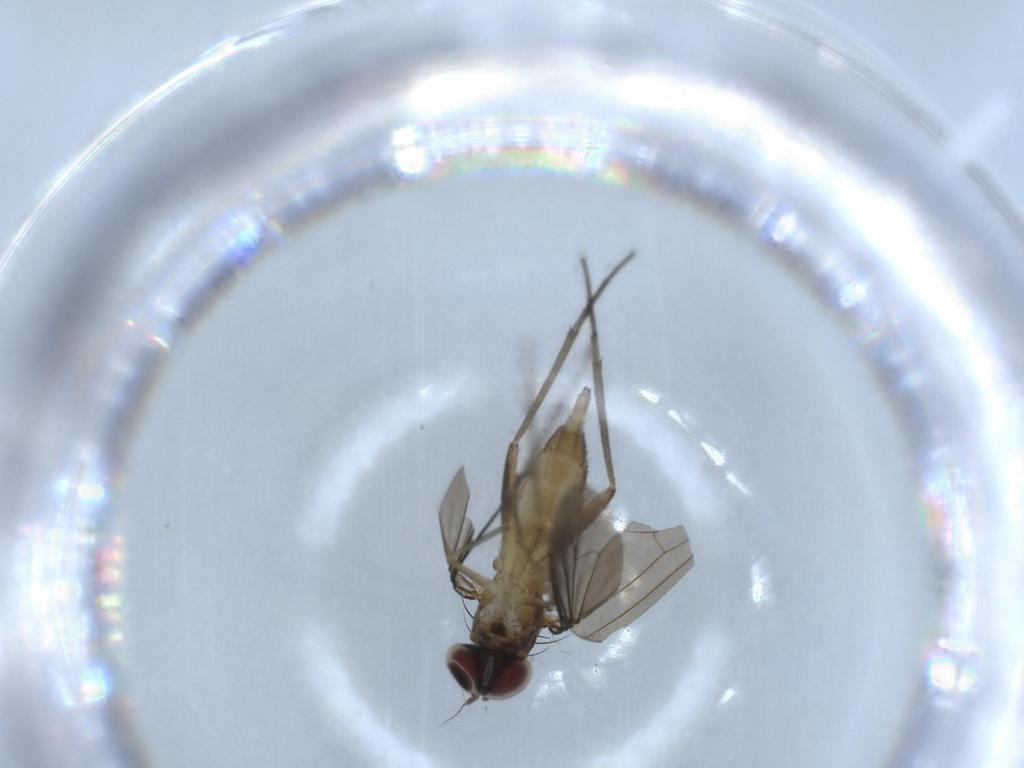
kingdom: Animalia
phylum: Arthropoda
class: Insecta
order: Diptera
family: Dolichopodidae
